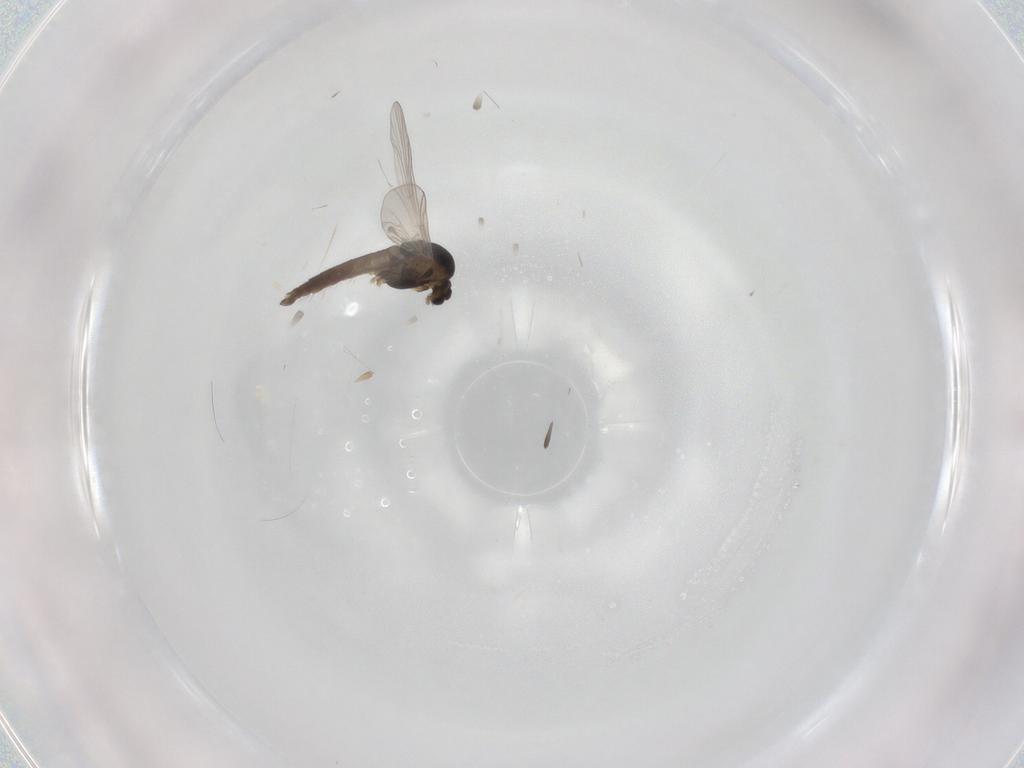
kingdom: Animalia
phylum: Arthropoda
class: Insecta
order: Diptera
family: Chironomidae
